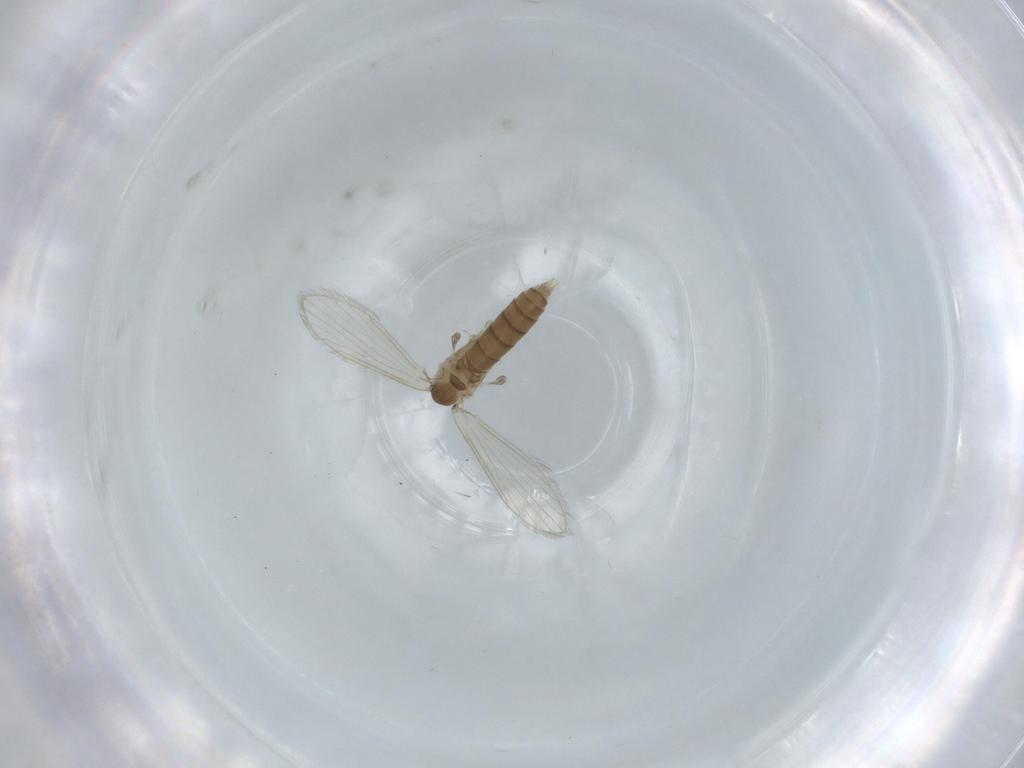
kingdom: Animalia
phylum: Arthropoda
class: Insecta
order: Diptera
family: Psychodidae
